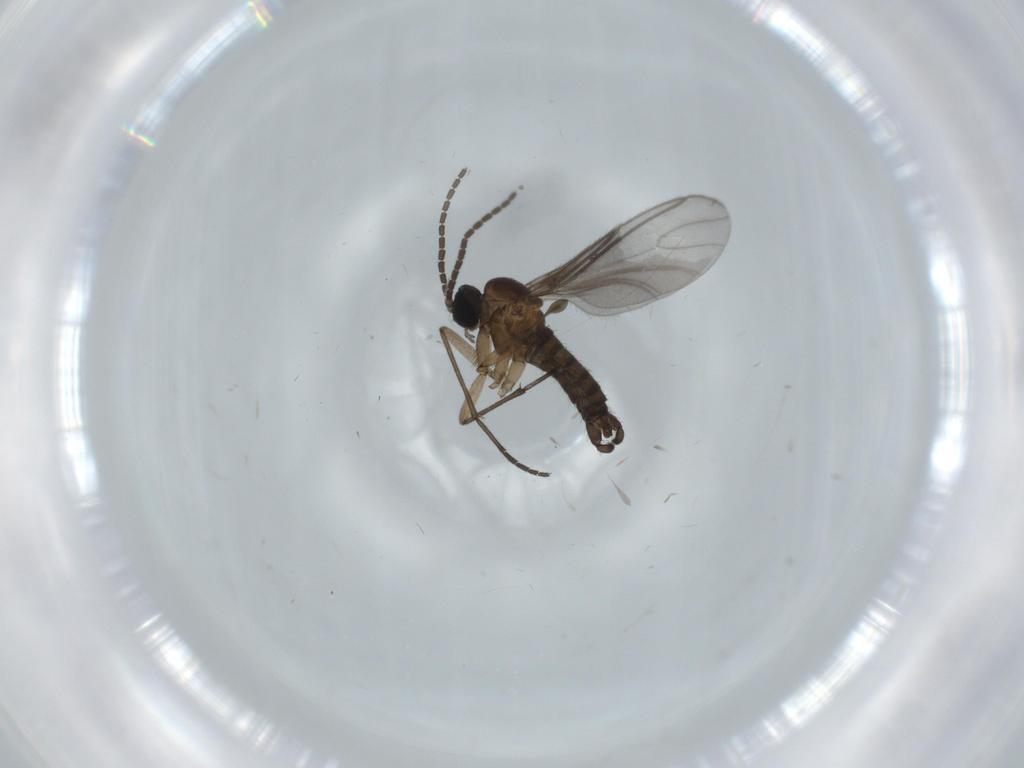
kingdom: Animalia
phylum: Arthropoda
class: Insecta
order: Diptera
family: Sciaridae
